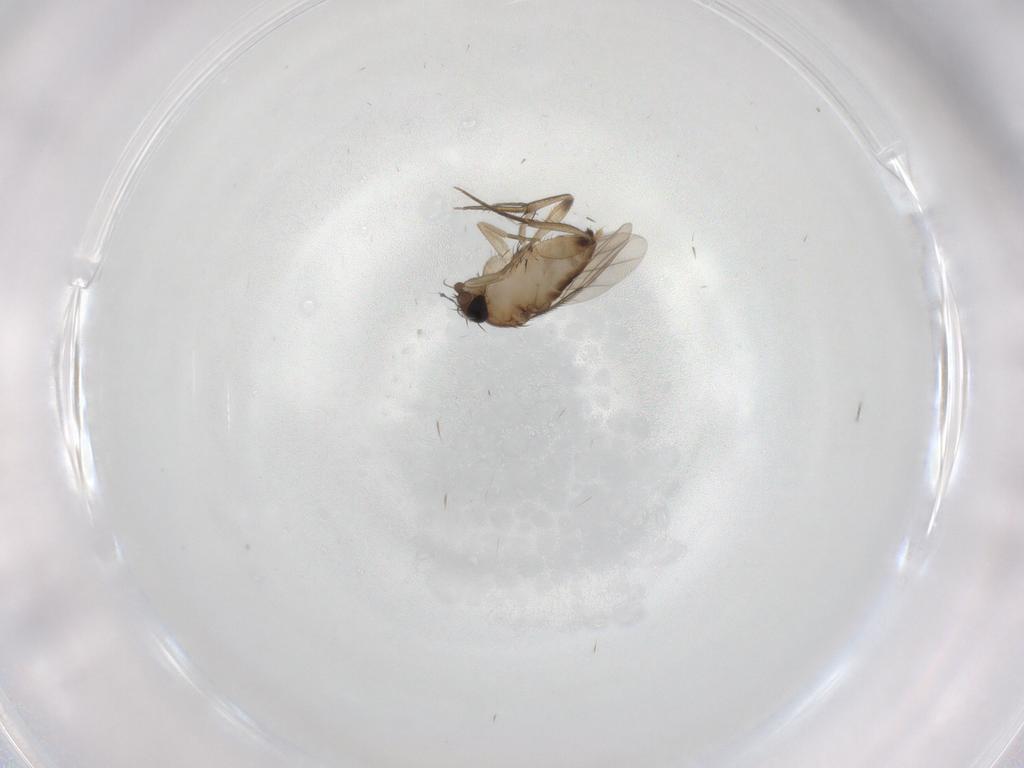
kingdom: Animalia
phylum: Arthropoda
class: Insecta
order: Diptera
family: Phoridae
